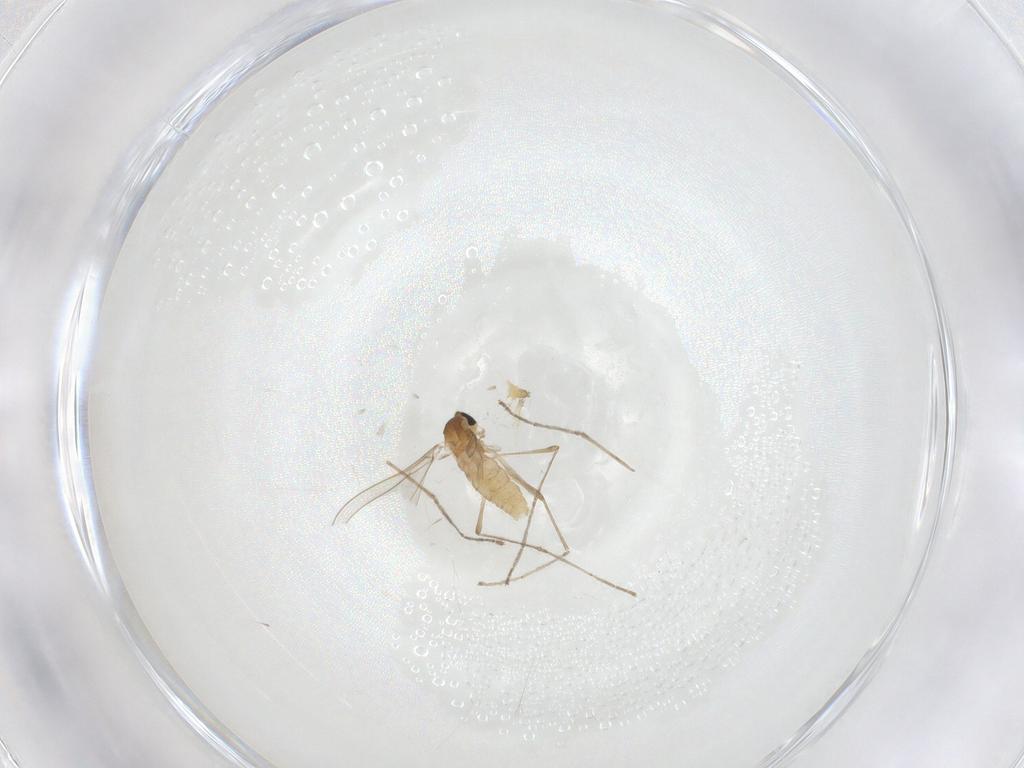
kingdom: Animalia
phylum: Arthropoda
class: Insecta
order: Diptera
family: Cecidomyiidae
